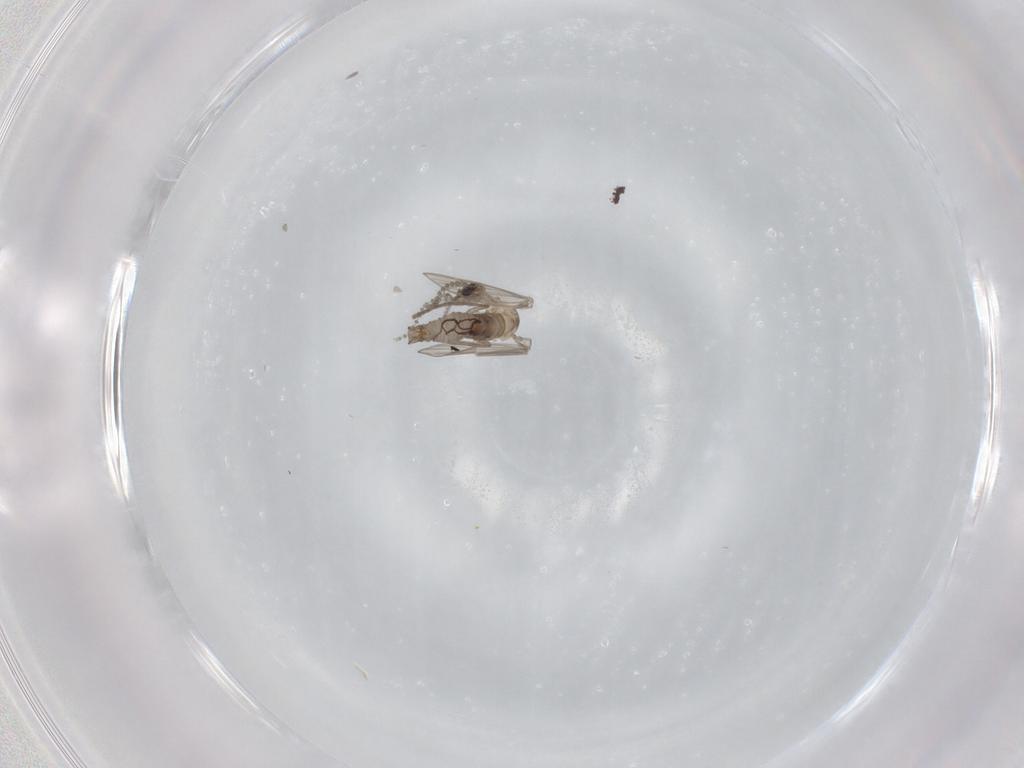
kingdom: Animalia
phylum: Arthropoda
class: Insecta
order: Diptera
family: Psychodidae
